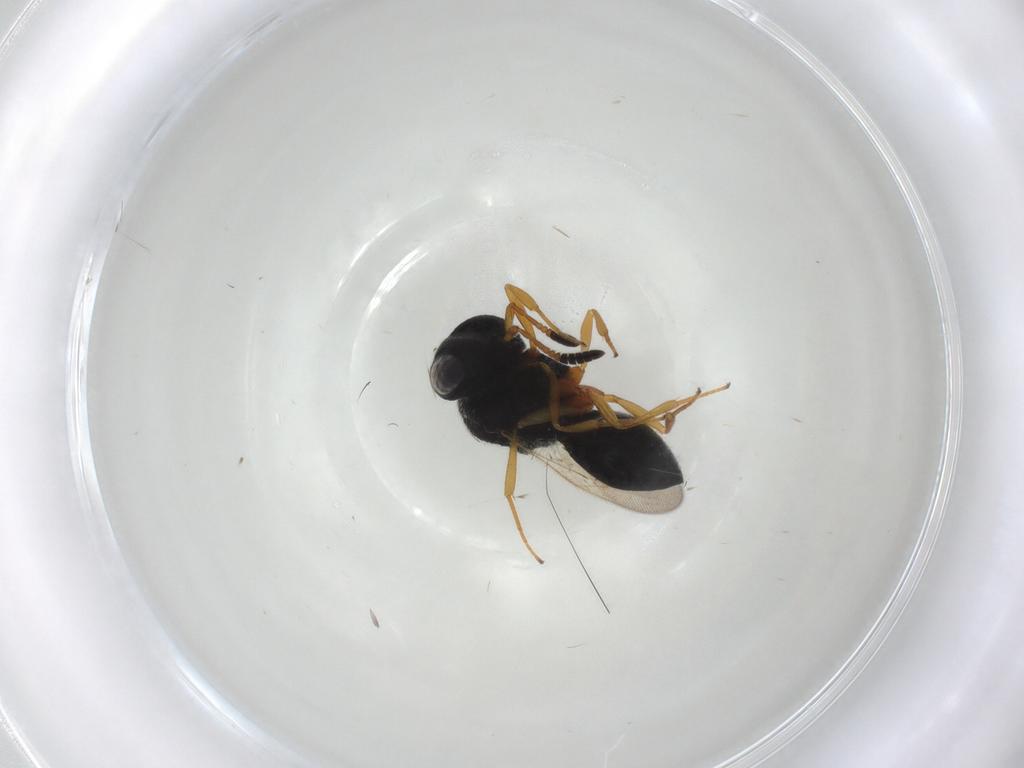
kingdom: Animalia
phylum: Arthropoda
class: Insecta
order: Hymenoptera
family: Scelionidae
